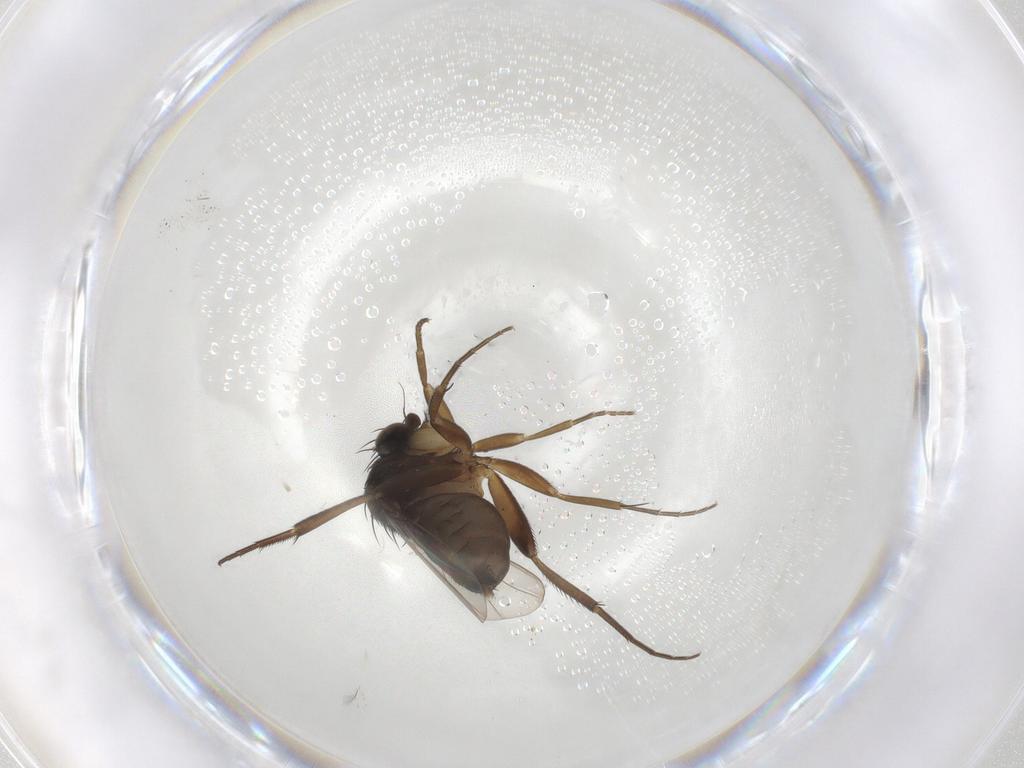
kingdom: Animalia
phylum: Arthropoda
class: Insecta
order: Diptera
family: Phoridae
